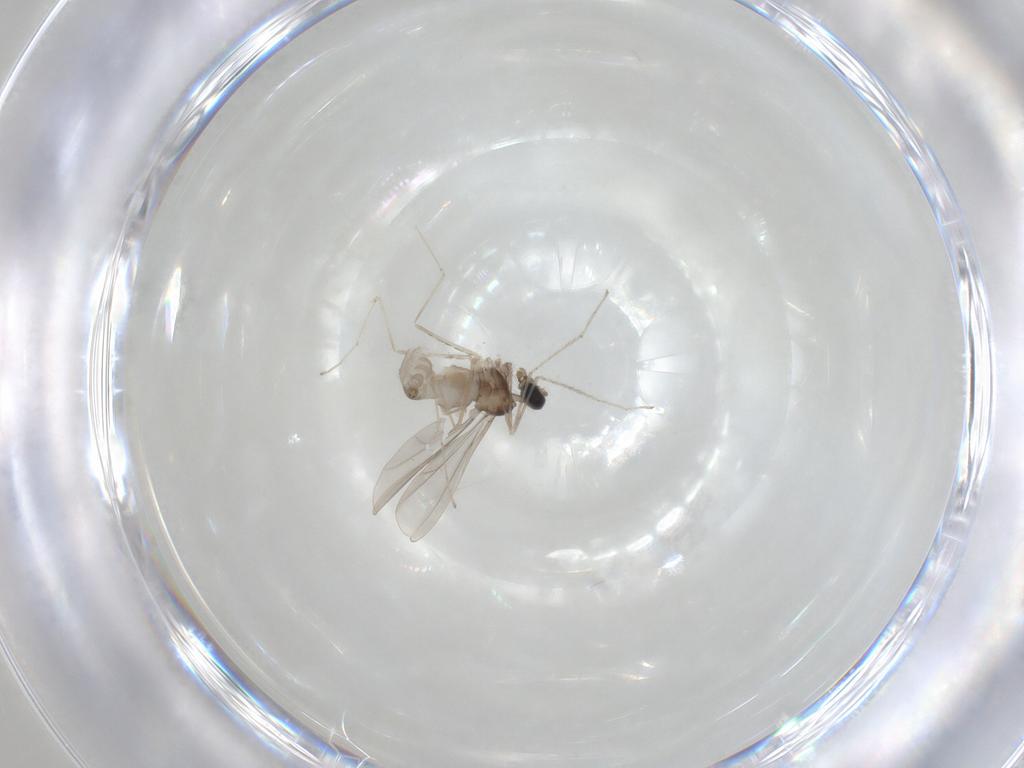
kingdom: Animalia
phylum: Arthropoda
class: Insecta
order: Diptera
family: Cecidomyiidae
